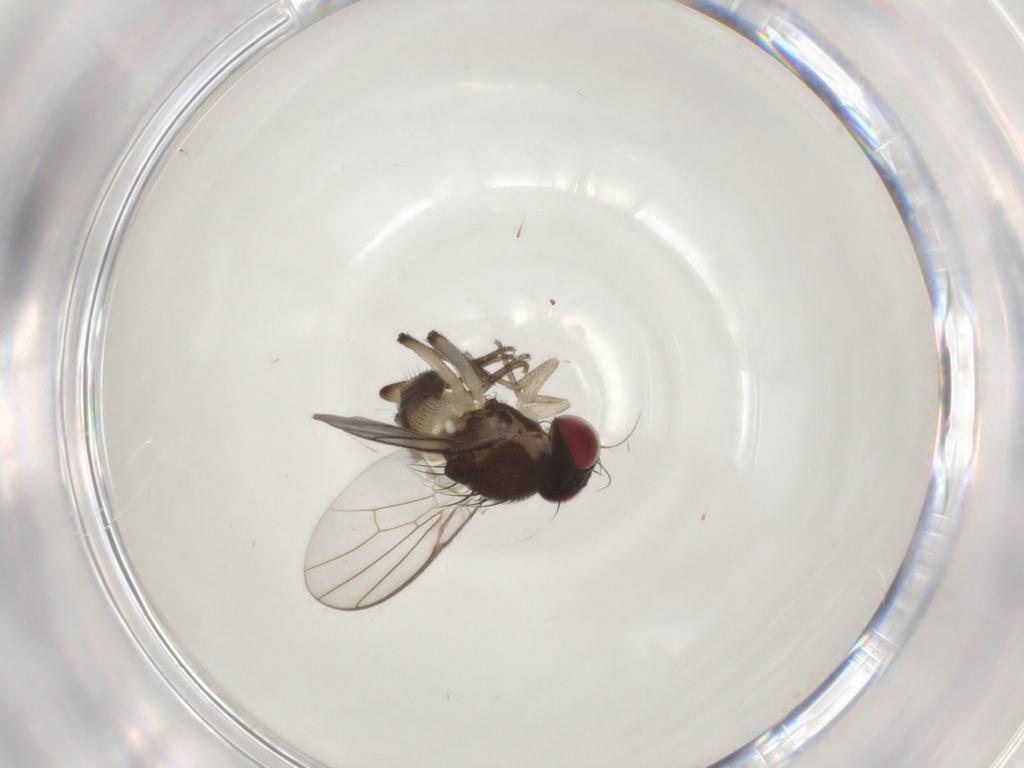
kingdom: Animalia
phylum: Arthropoda
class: Insecta
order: Diptera
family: Agromyzidae
